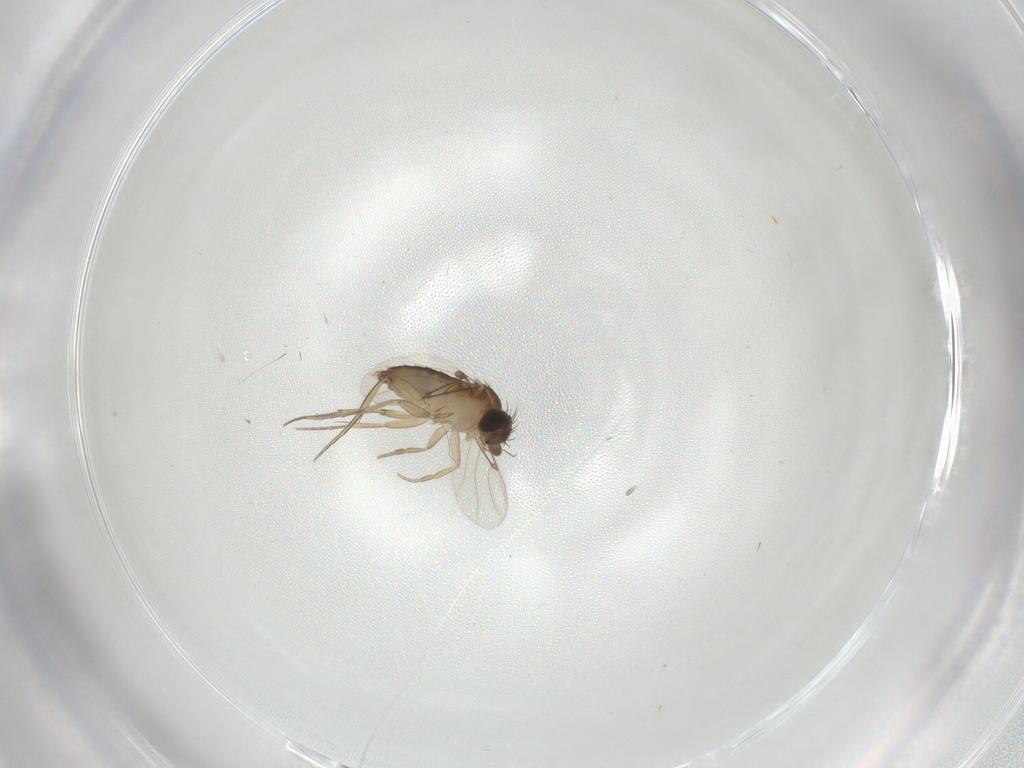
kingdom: Animalia
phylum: Arthropoda
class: Insecta
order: Diptera
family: Phoridae
